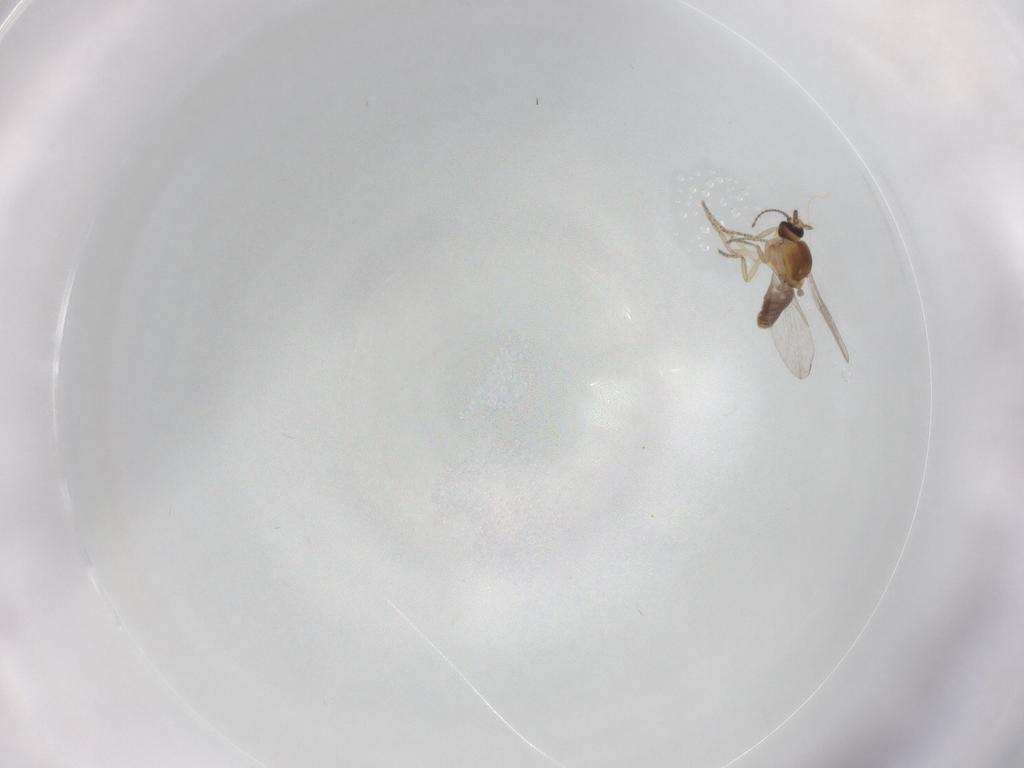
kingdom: Animalia
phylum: Arthropoda
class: Insecta
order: Diptera
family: Ceratopogonidae
